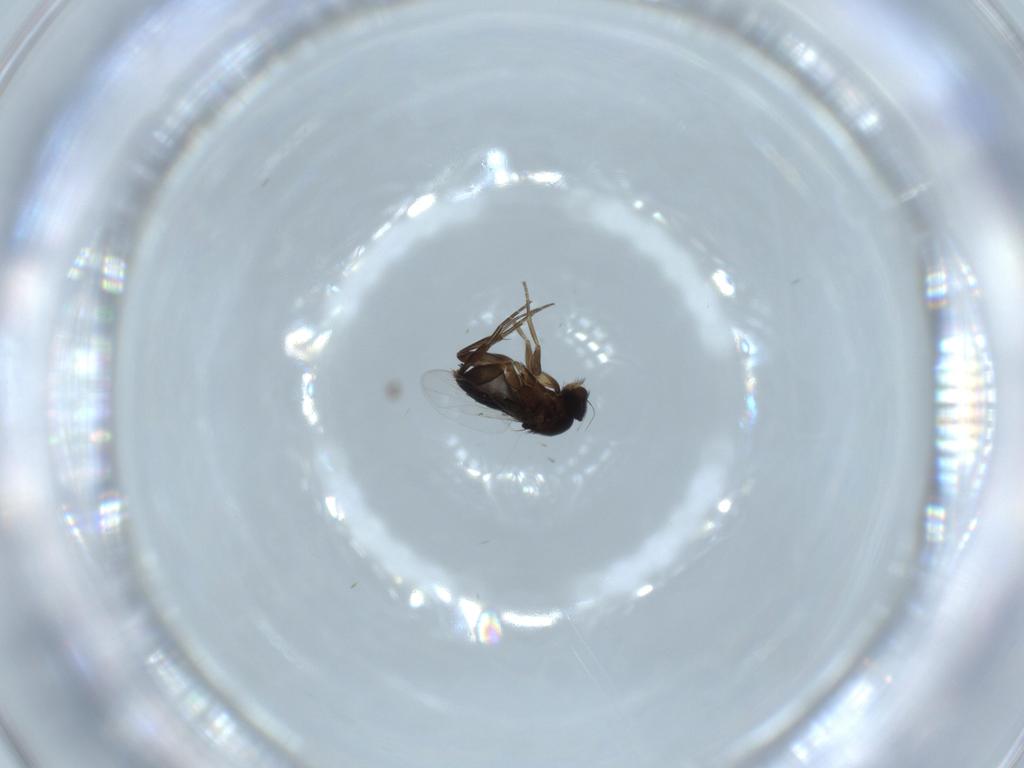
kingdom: Animalia
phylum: Arthropoda
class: Insecta
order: Diptera
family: Phoridae
